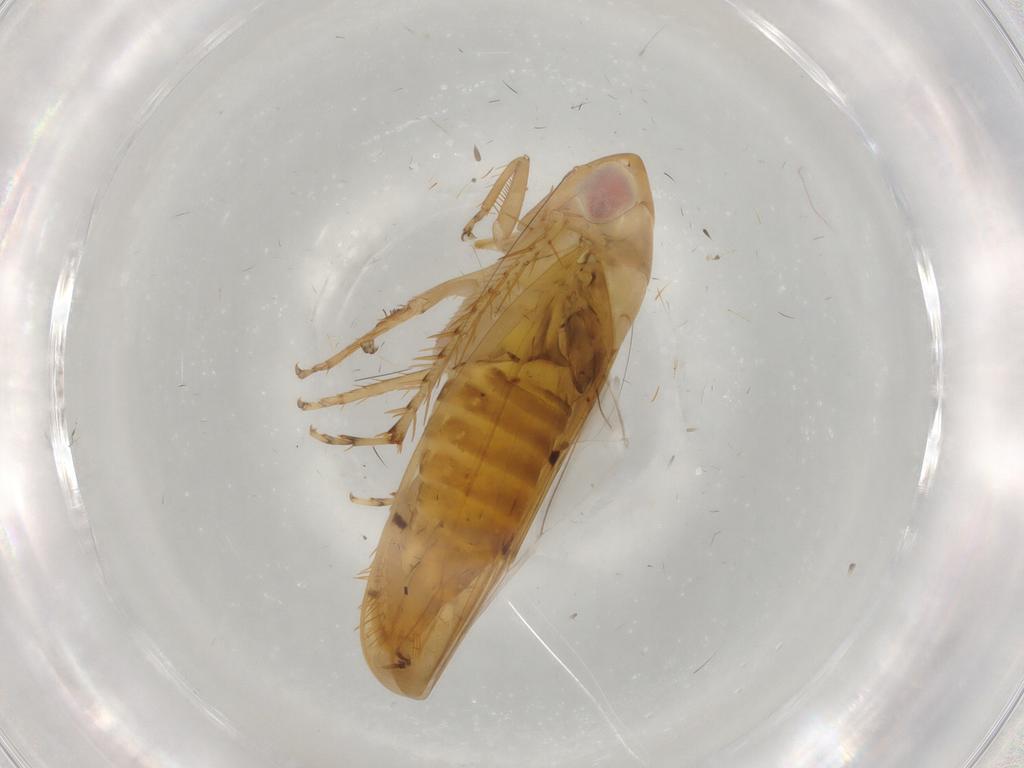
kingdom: Animalia
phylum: Arthropoda
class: Insecta
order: Hemiptera
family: Cicadellidae
